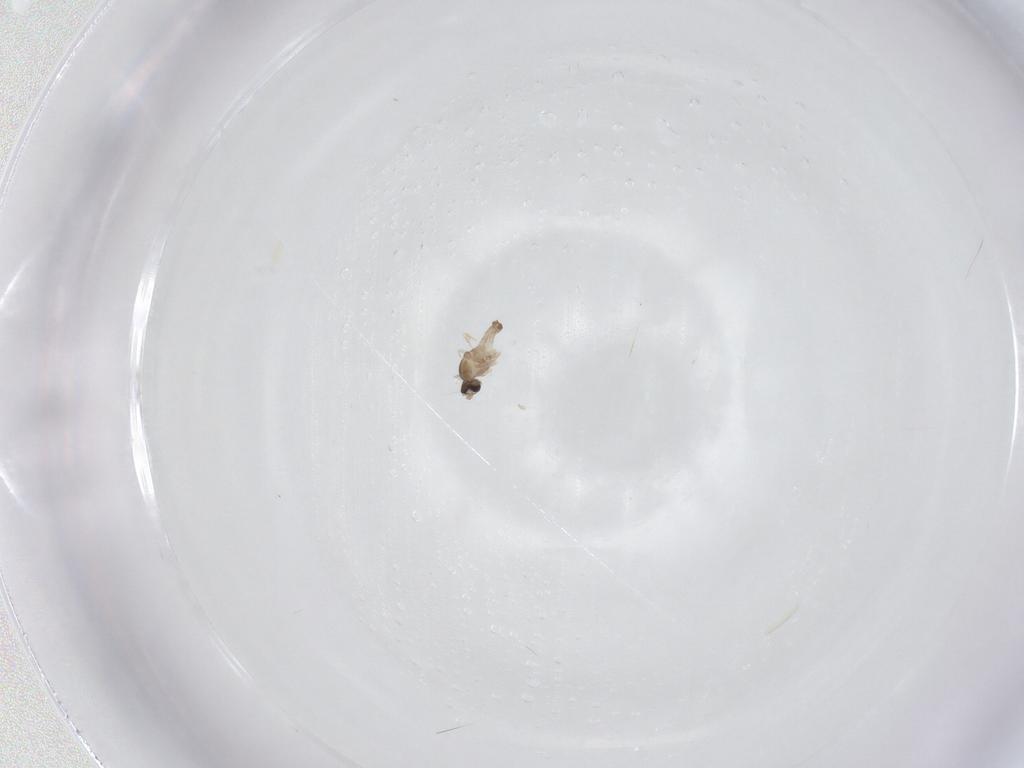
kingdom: Animalia
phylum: Arthropoda
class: Insecta
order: Diptera
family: Cecidomyiidae
